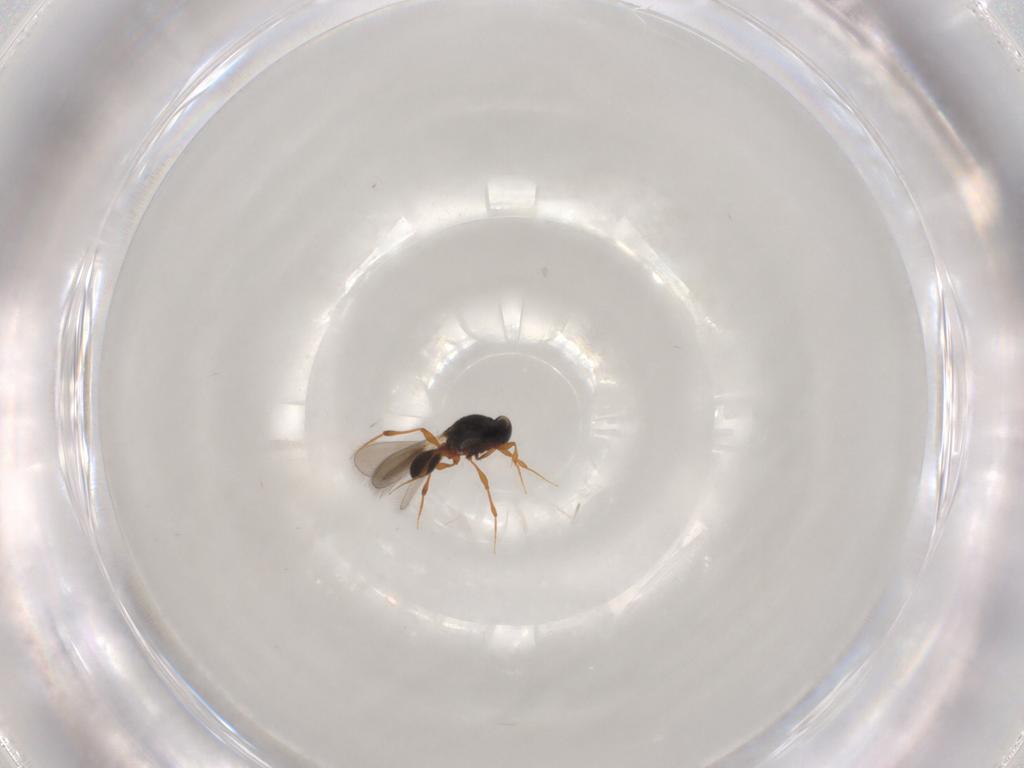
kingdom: Animalia
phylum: Arthropoda
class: Insecta
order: Hymenoptera
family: Platygastridae
